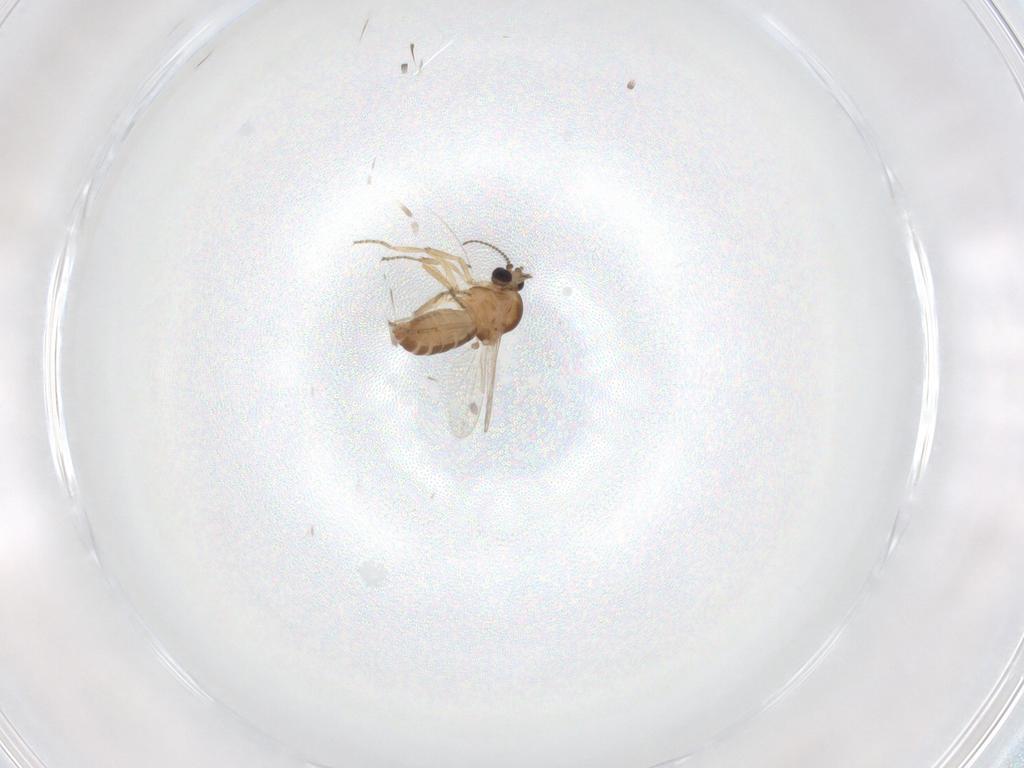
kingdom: Animalia
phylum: Arthropoda
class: Insecta
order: Diptera
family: Ceratopogonidae
